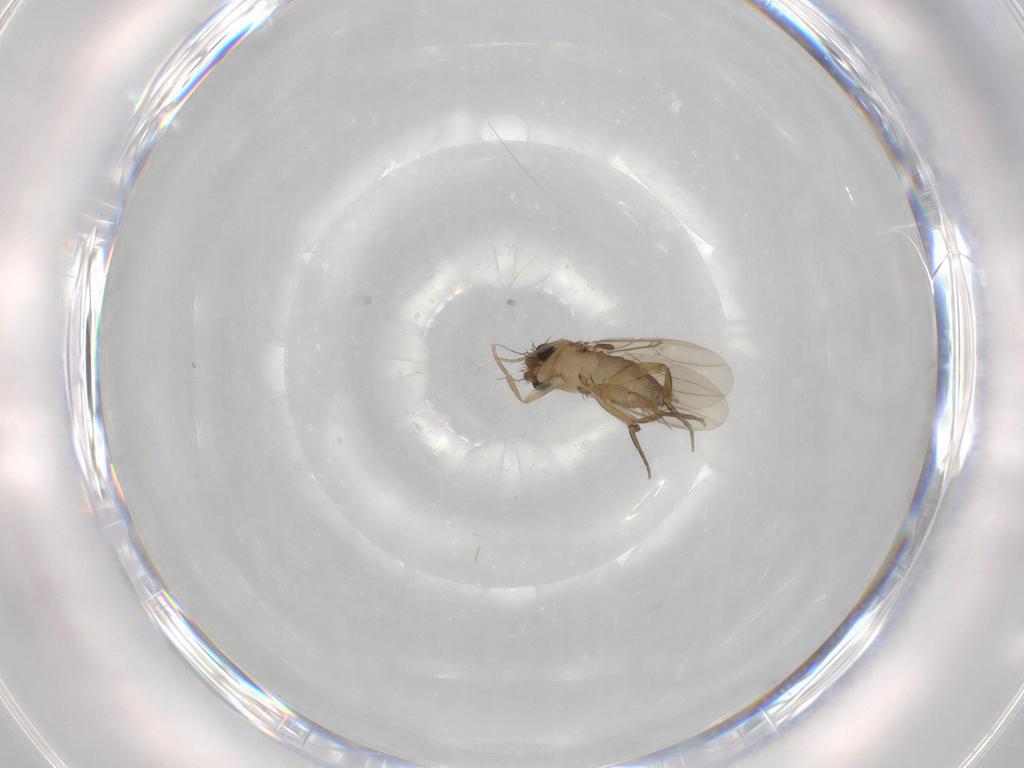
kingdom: Animalia
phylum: Arthropoda
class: Insecta
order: Diptera
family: Phoridae
